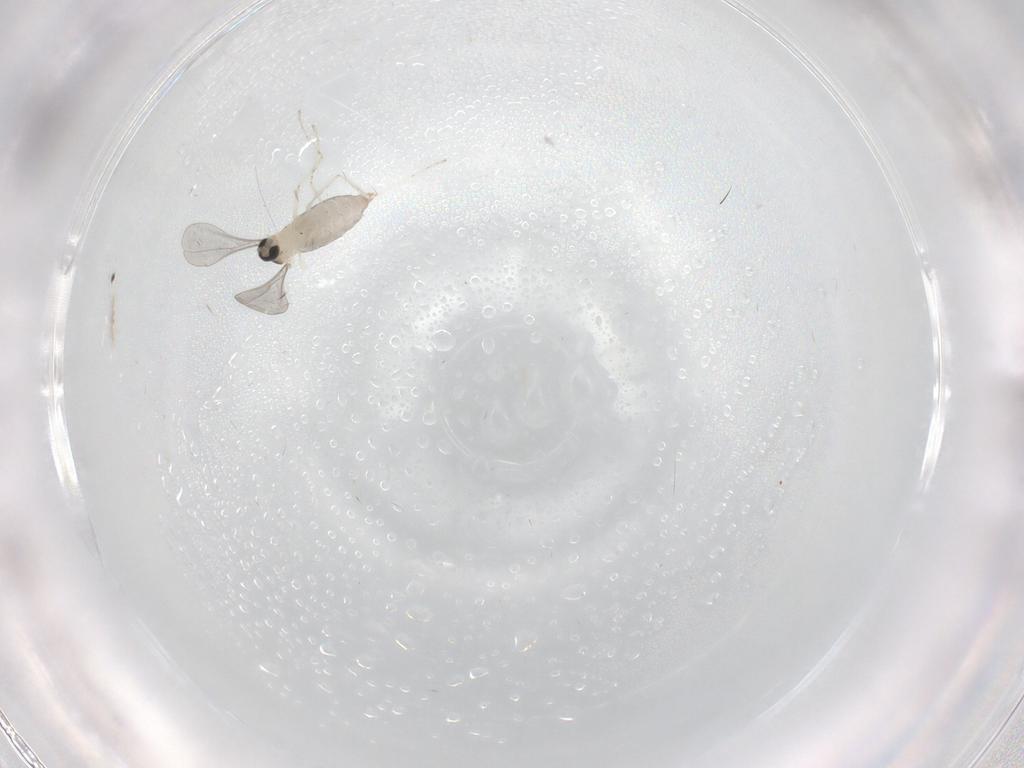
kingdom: Animalia
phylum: Arthropoda
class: Insecta
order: Diptera
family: Cecidomyiidae
